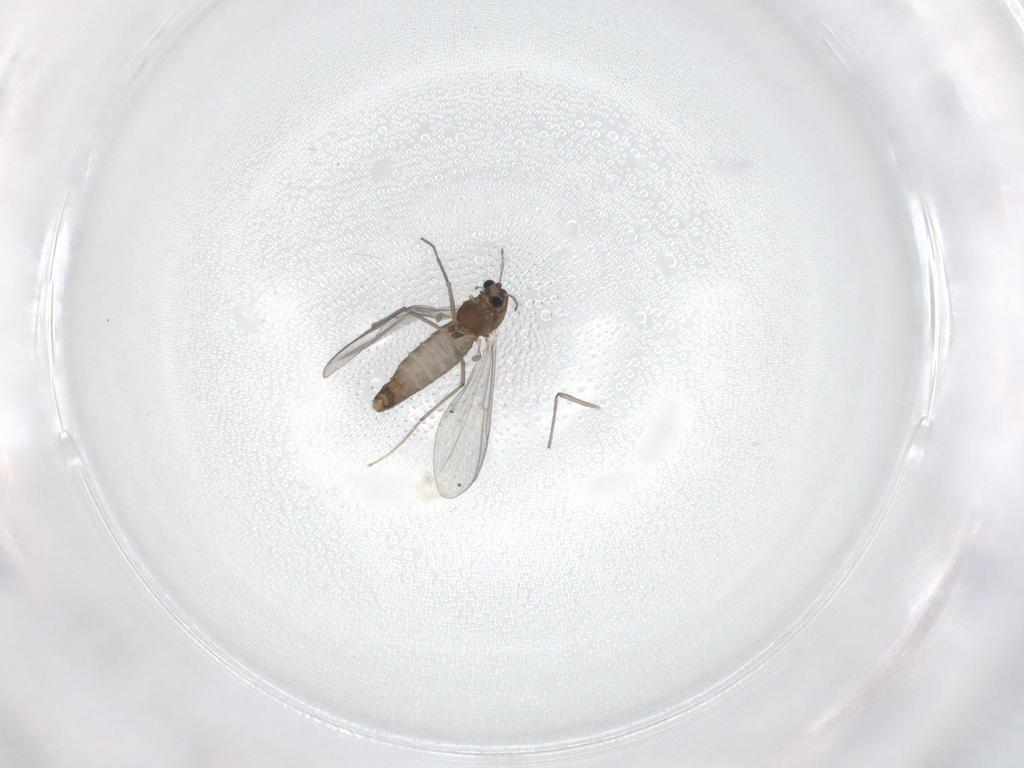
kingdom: Animalia
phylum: Arthropoda
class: Insecta
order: Diptera
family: Chironomidae
